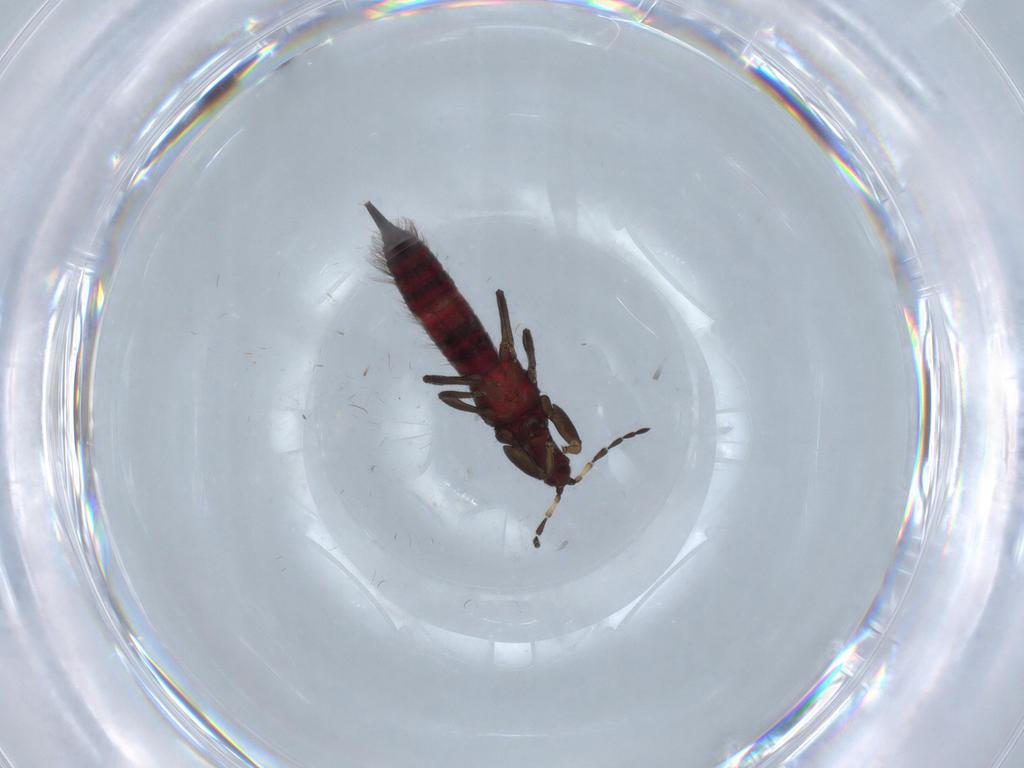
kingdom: Animalia
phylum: Arthropoda
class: Insecta
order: Thysanoptera
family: Phlaeothripidae
